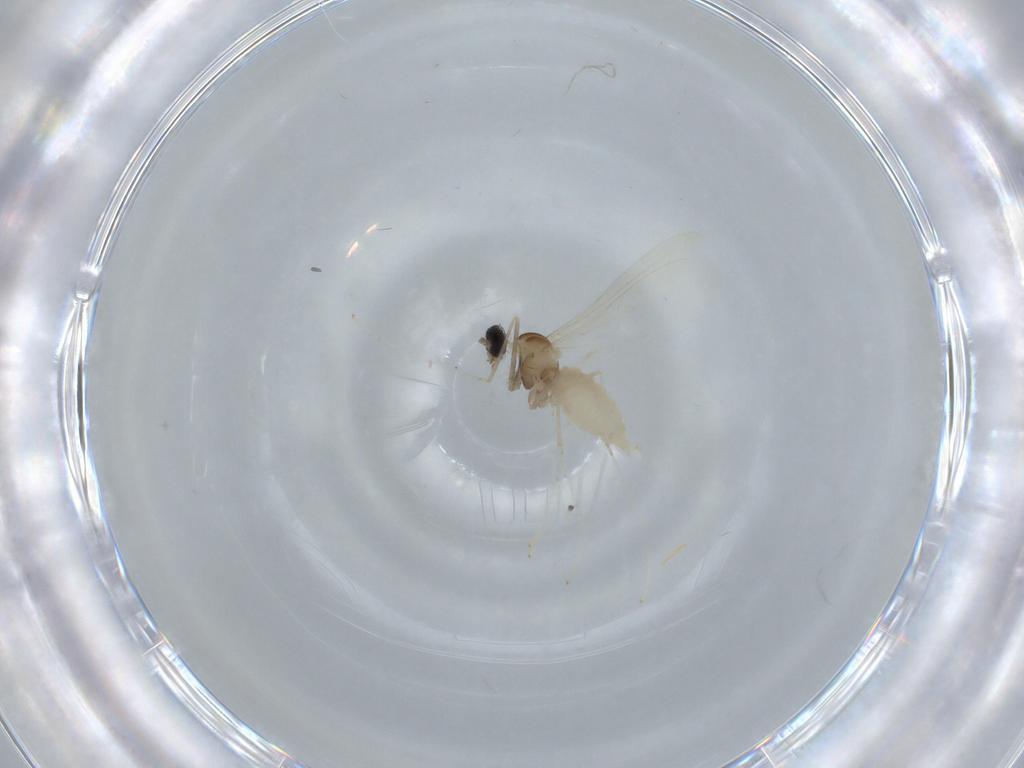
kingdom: Animalia
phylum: Arthropoda
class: Insecta
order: Diptera
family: Cecidomyiidae
